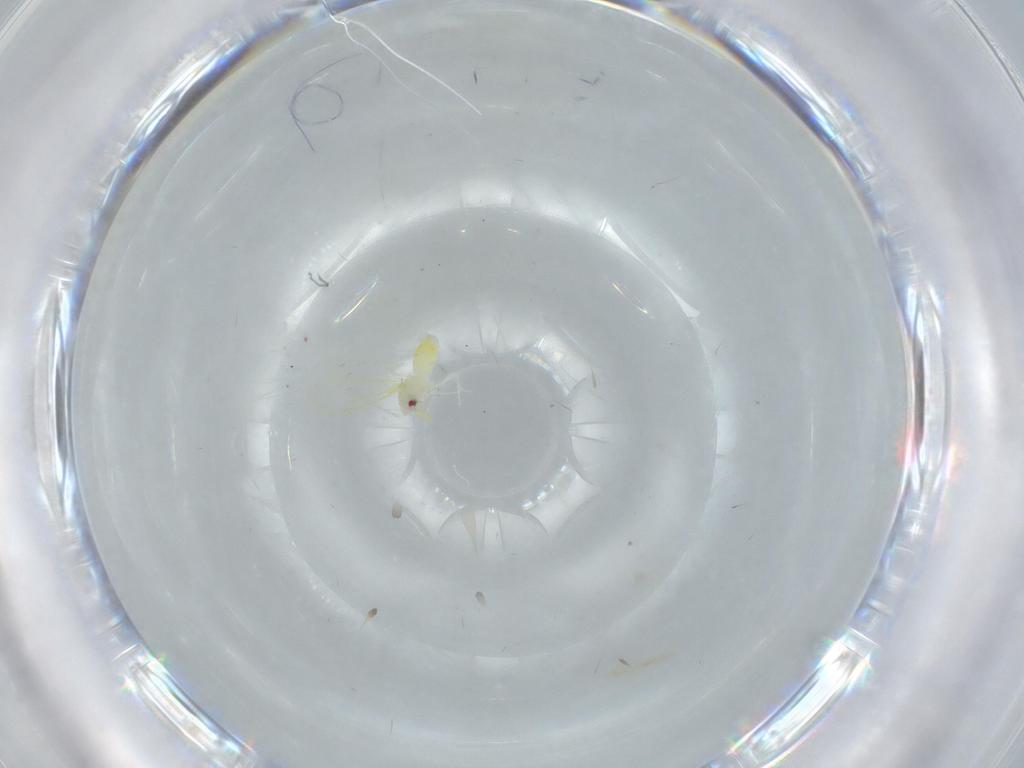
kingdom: Animalia
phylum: Arthropoda
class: Insecta
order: Hemiptera
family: Aleyrodidae
